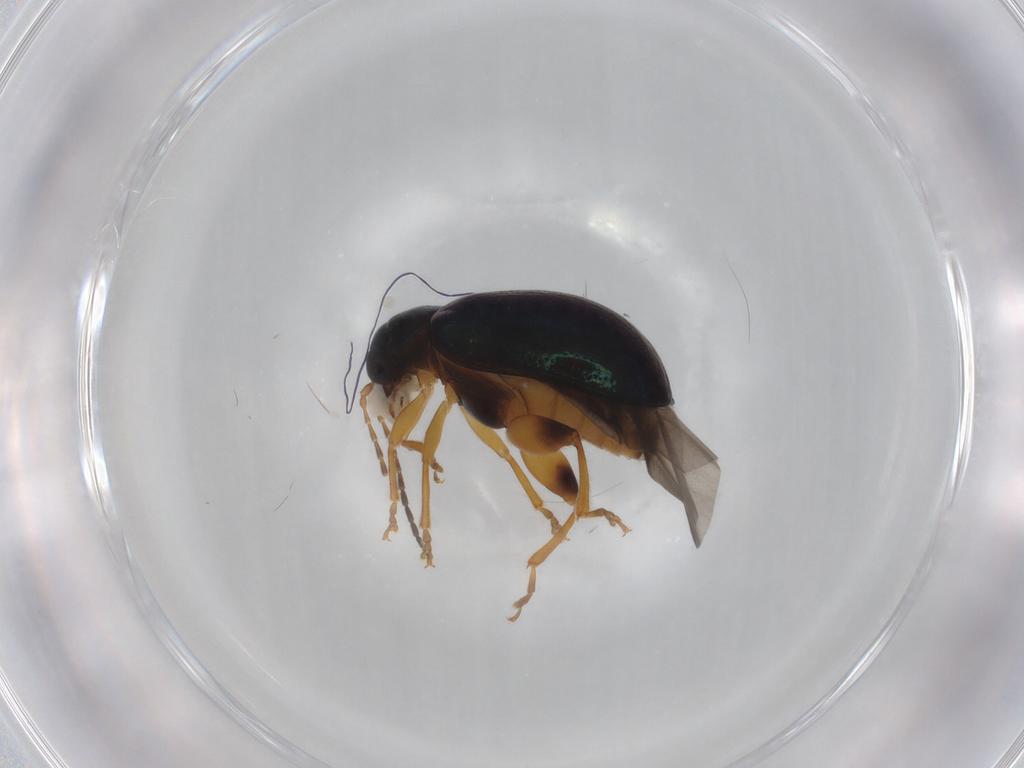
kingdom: Animalia
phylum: Arthropoda
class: Insecta
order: Coleoptera
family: Chrysomelidae
